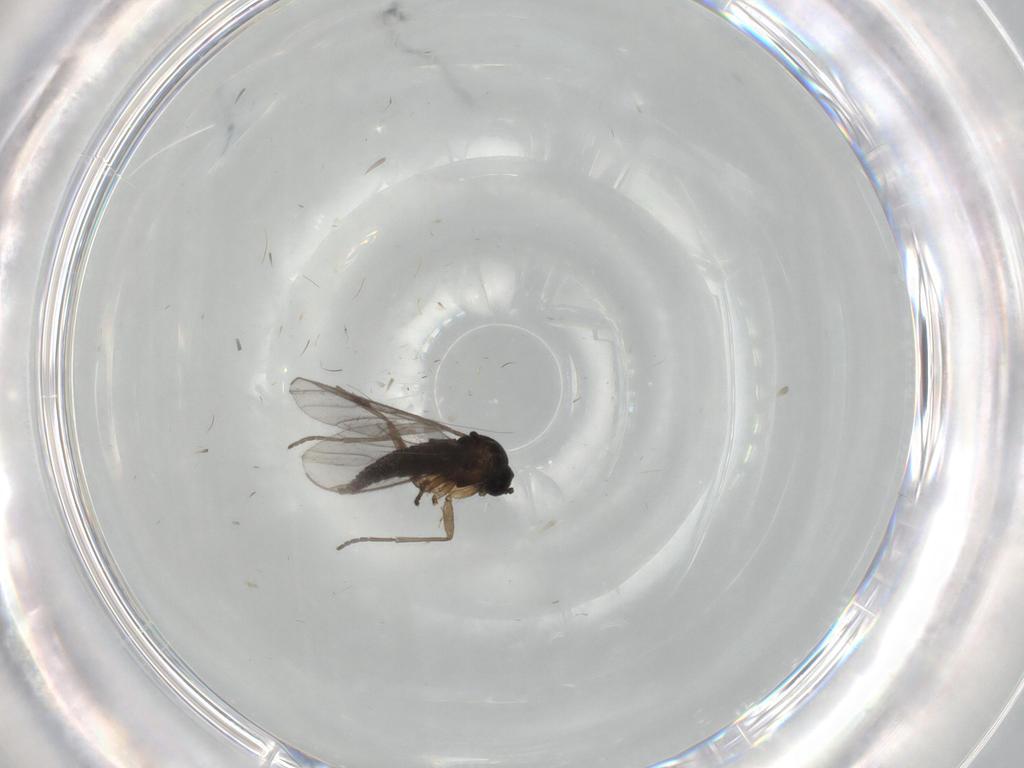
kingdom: Animalia
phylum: Arthropoda
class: Insecta
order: Diptera
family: Sciaridae
